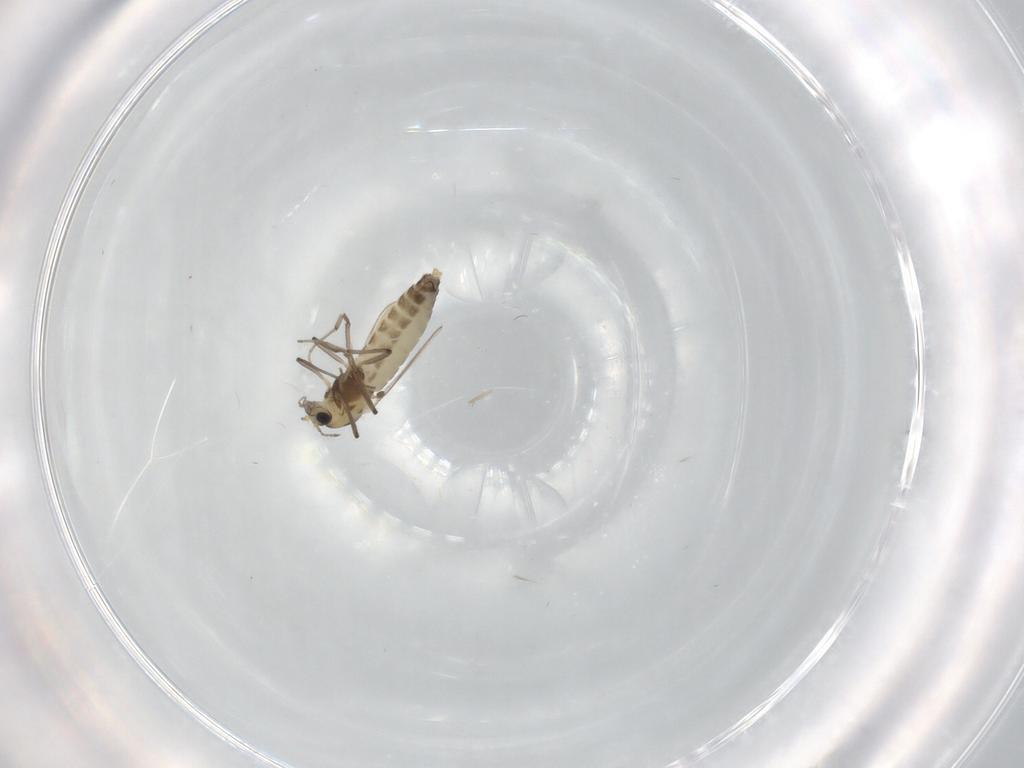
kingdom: Animalia
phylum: Arthropoda
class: Insecta
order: Diptera
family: Chironomidae
